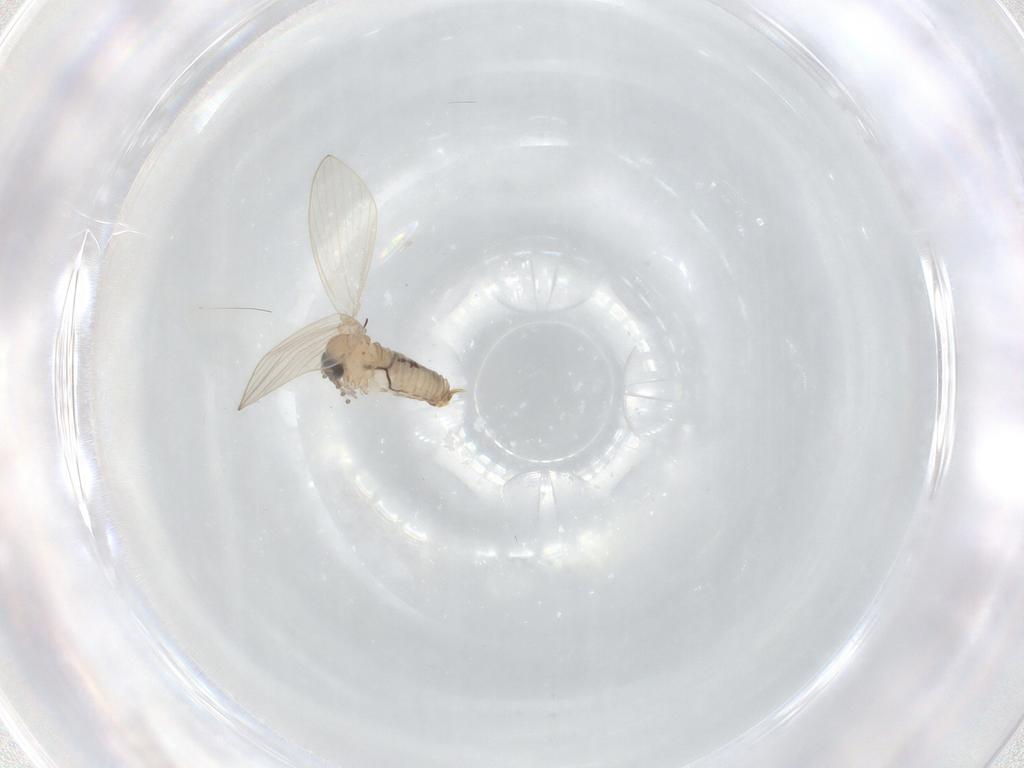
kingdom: Animalia
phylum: Arthropoda
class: Insecta
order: Diptera
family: Psychodidae
